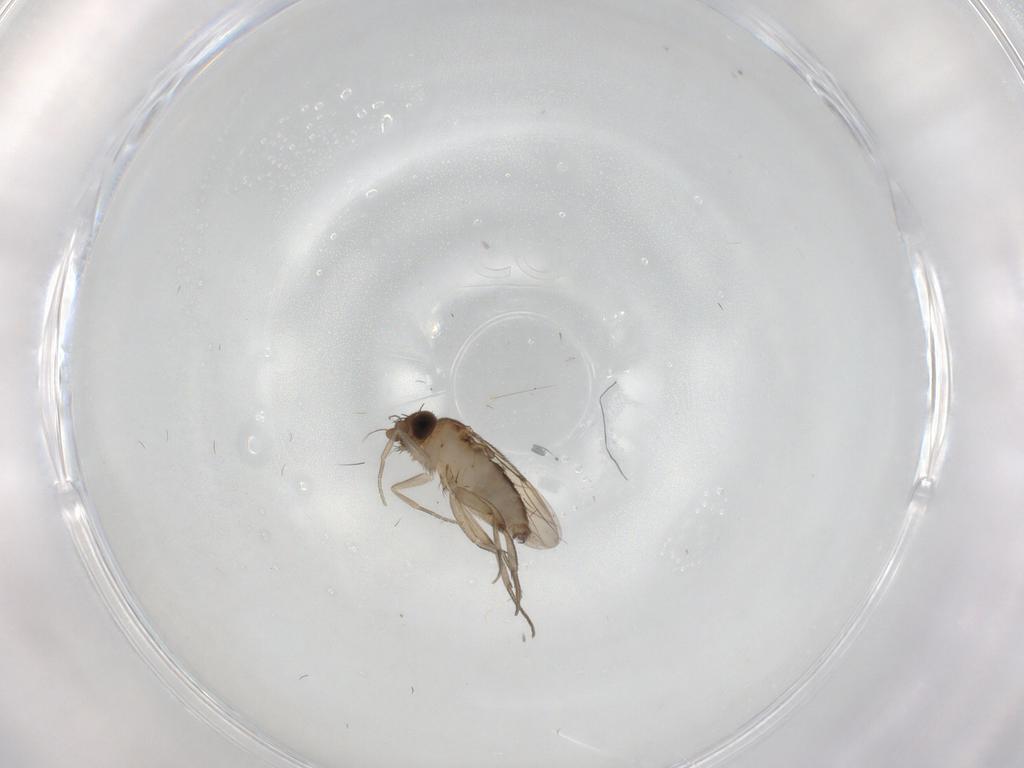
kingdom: Animalia
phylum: Arthropoda
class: Insecta
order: Diptera
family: Phoridae
